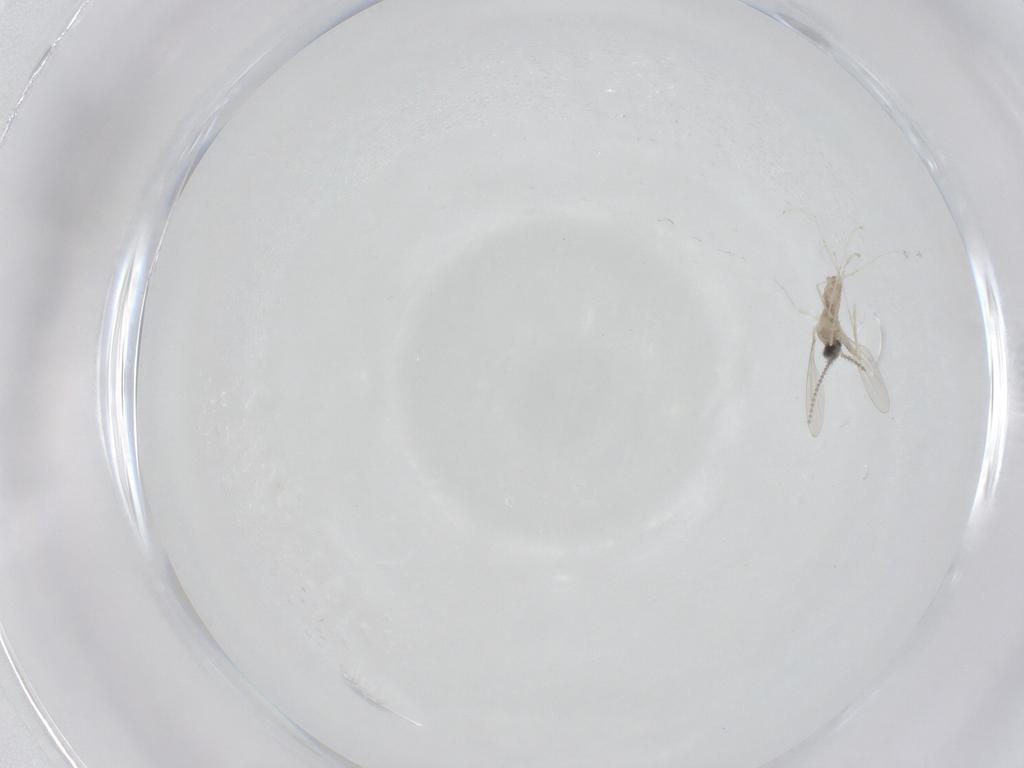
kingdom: Animalia
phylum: Arthropoda
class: Insecta
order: Diptera
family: Cecidomyiidae
